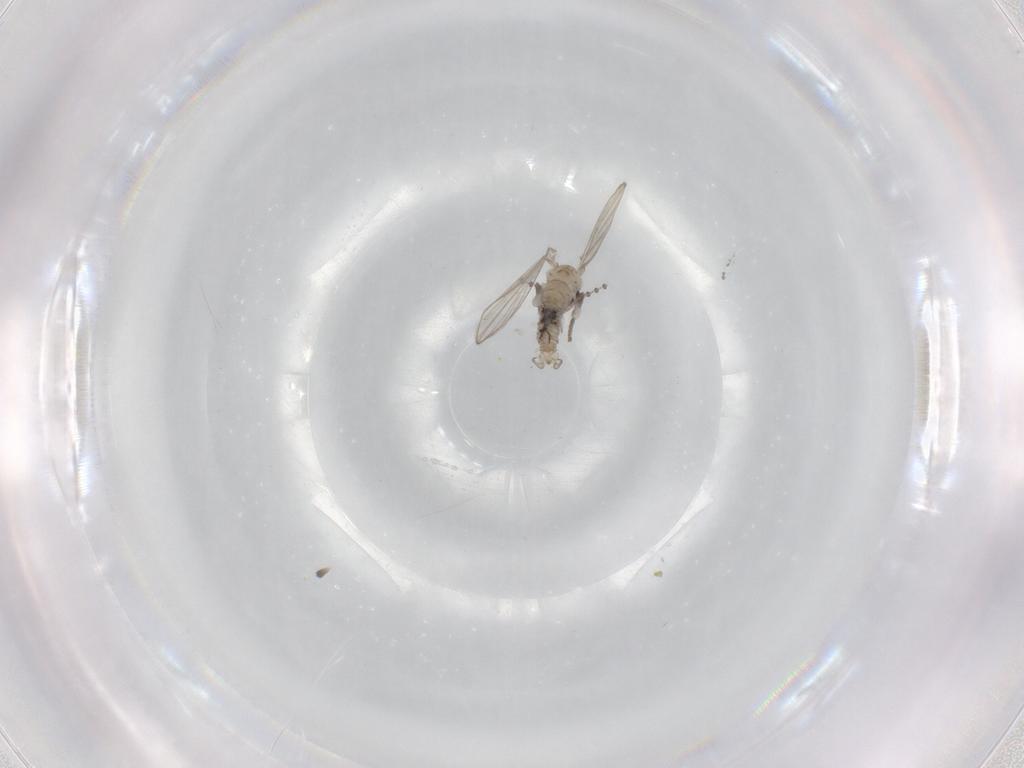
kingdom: Animalia
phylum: Arthropoda
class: Insecta
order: Diptera
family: Psychodidae
